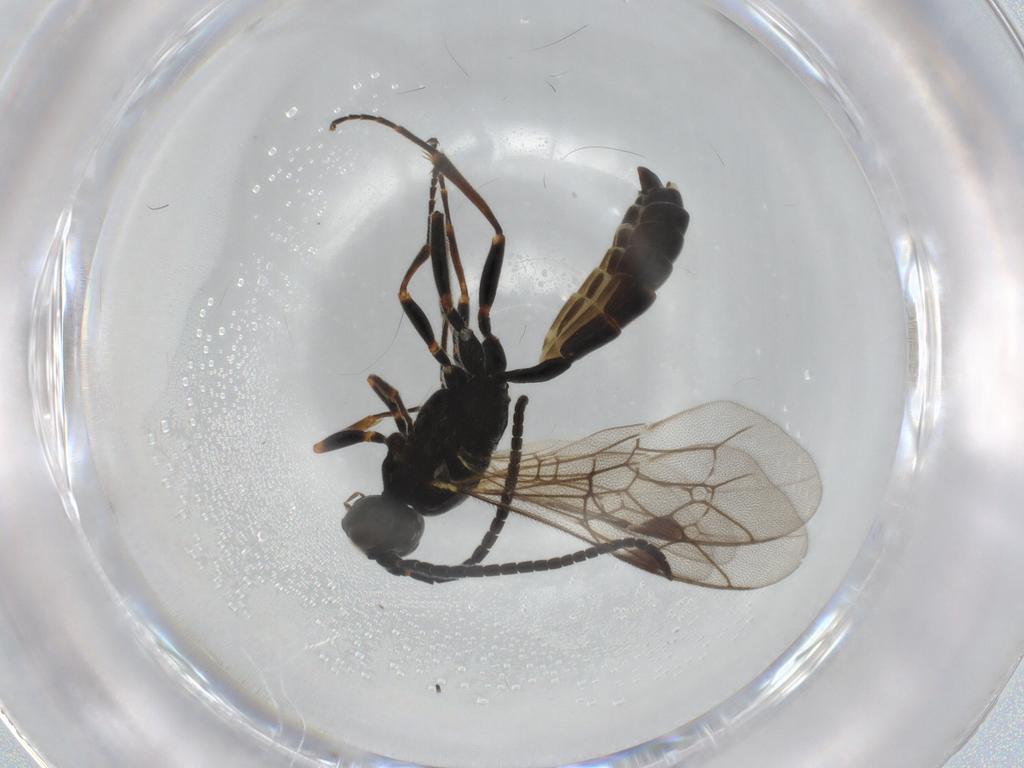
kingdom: Animalia
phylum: Arthropoda
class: Insecta
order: Hymenoptera
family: Ichneumonidae
